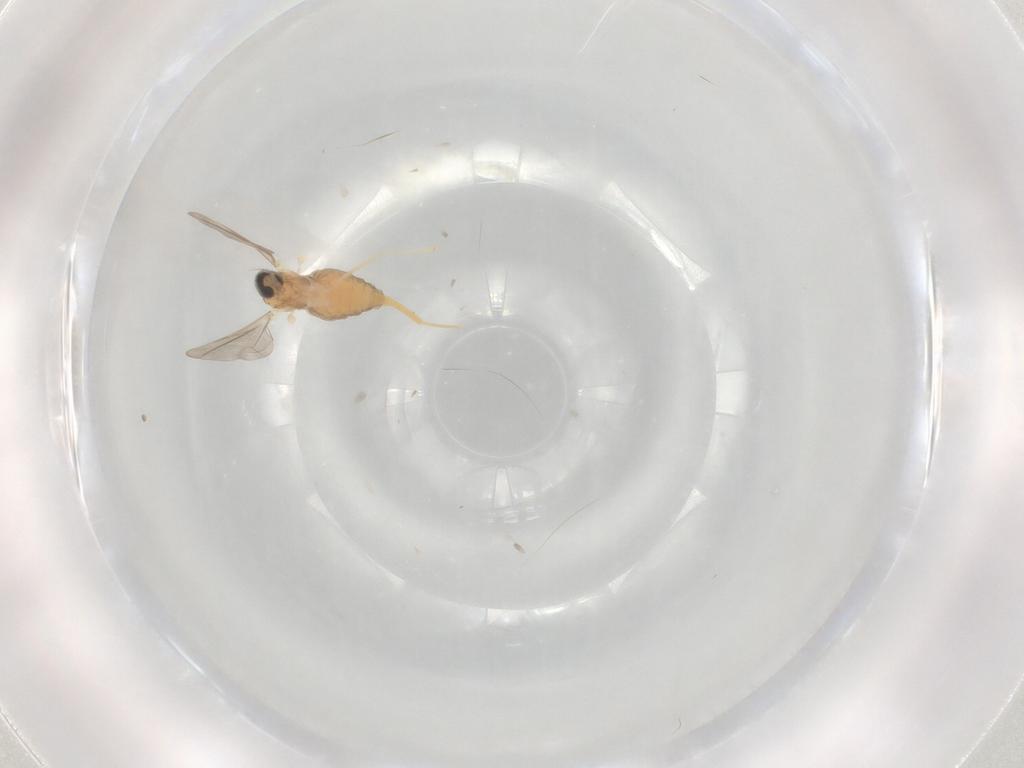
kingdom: Animalia
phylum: Arthropoda
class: Insecta
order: Diptera
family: Cecidomyiidae
